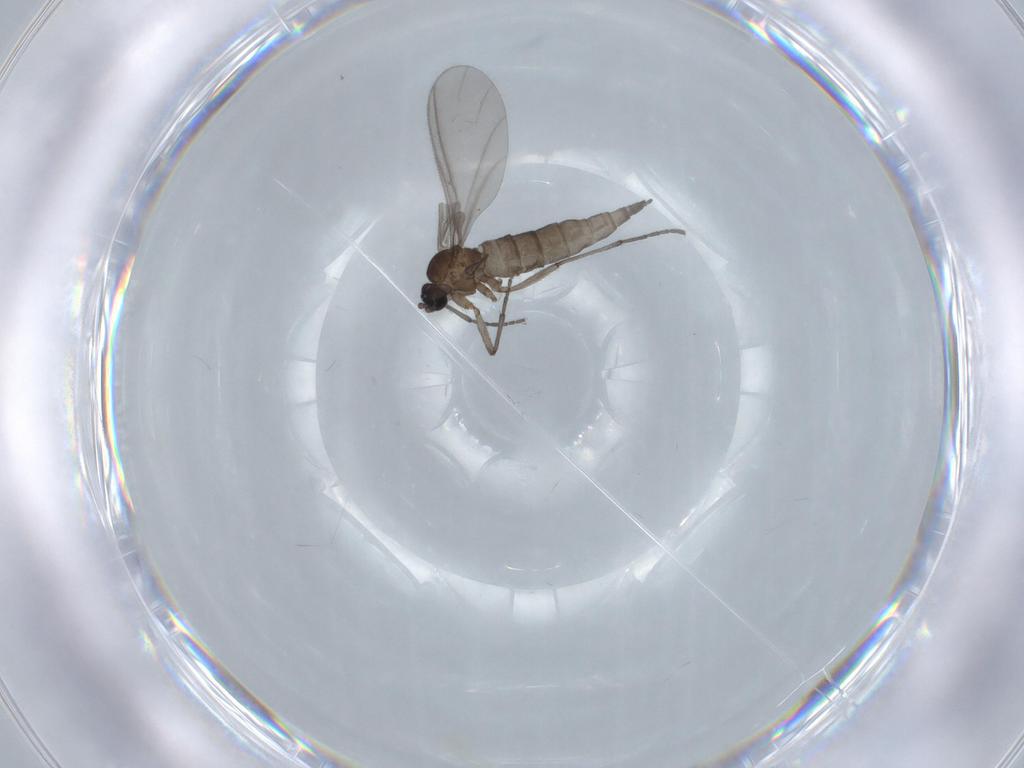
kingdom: Animalia
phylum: Arthropoda
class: Insecta
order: Diptera
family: Sciaridae
